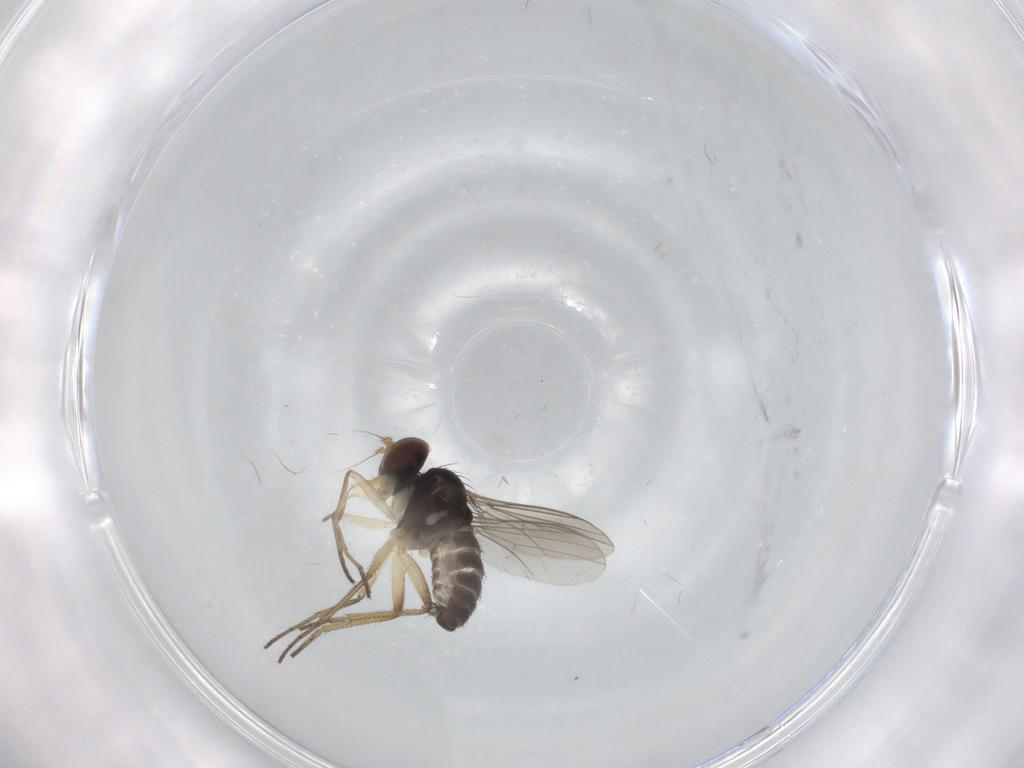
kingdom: Animalia
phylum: Arthropoda
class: Insecta
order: Diptera
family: Dolichopodidae
